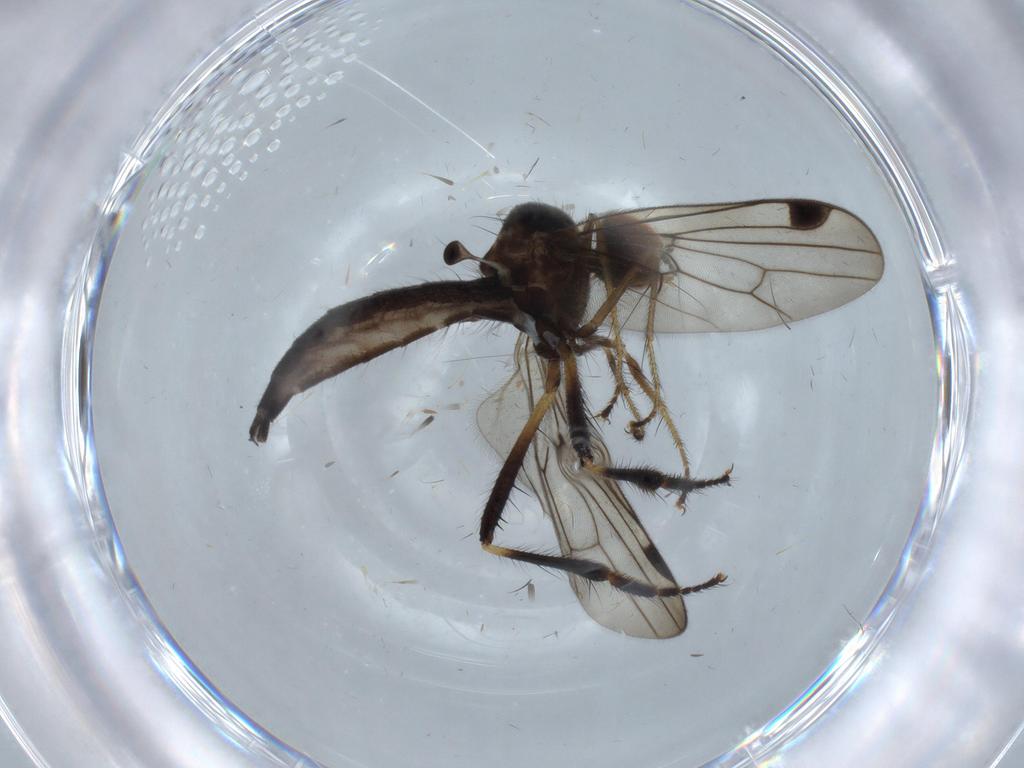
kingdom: Animalia
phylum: Arthropoda
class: Insecta
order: Diptera
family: Hybotidae
